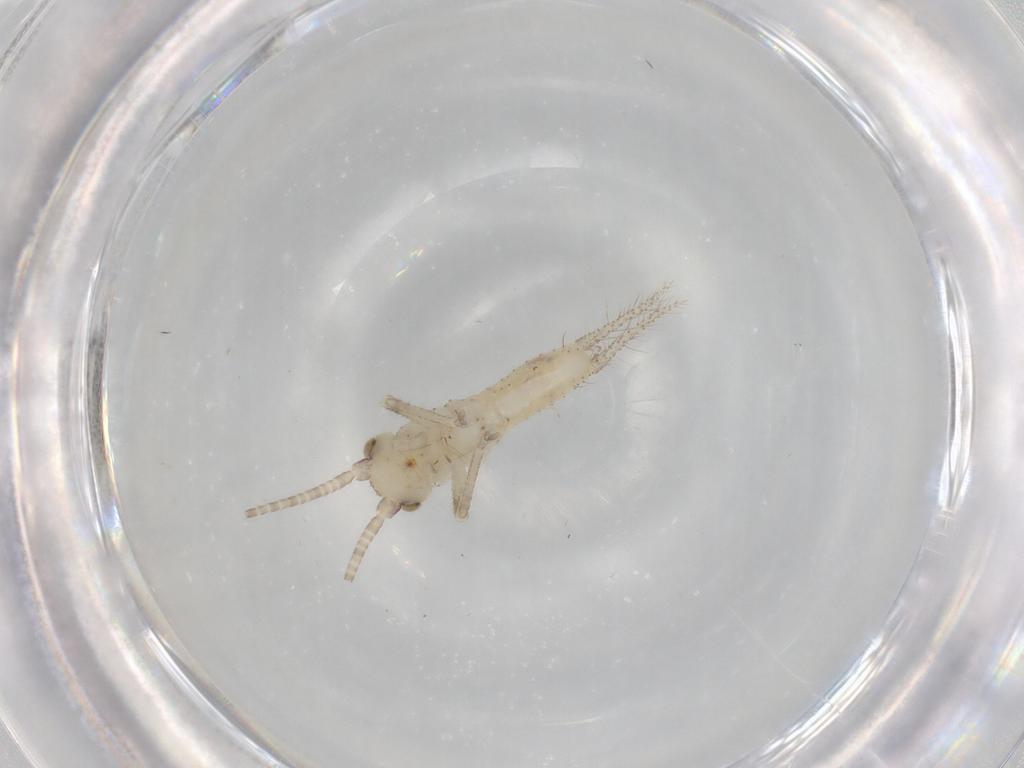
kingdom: Animalia
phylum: Arthropoda
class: Insecta
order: Orthoptera
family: Gryllidae
